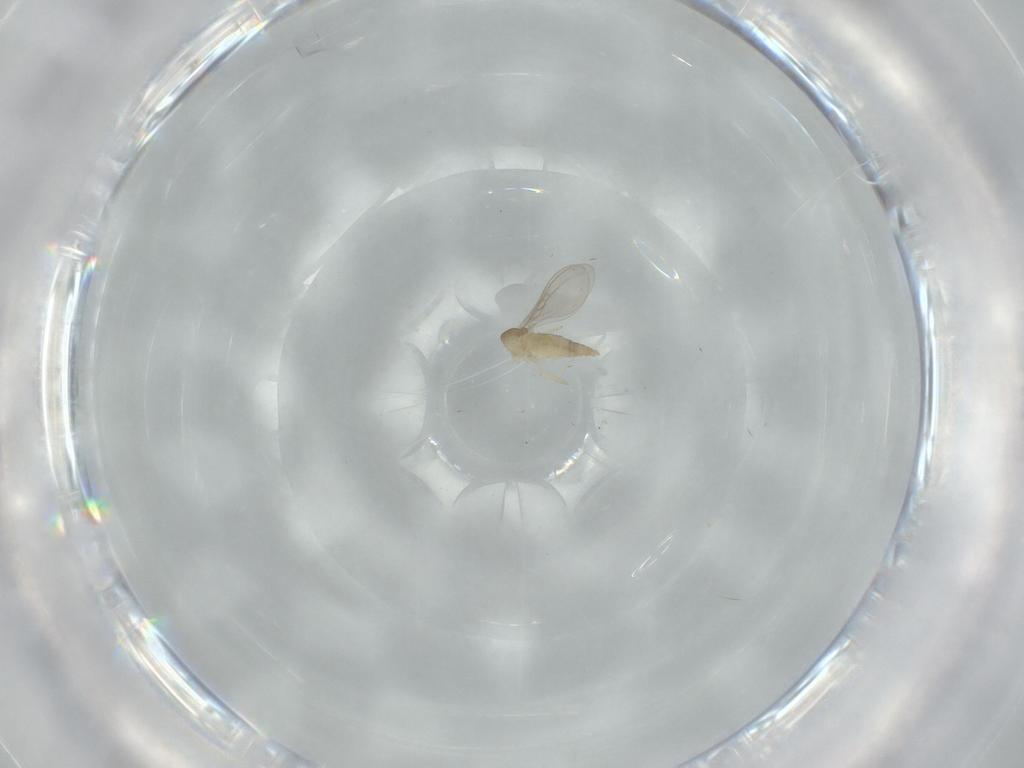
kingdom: Animalia
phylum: Arthropoda
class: Insecta
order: Diptera
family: Cecidomyiidae
